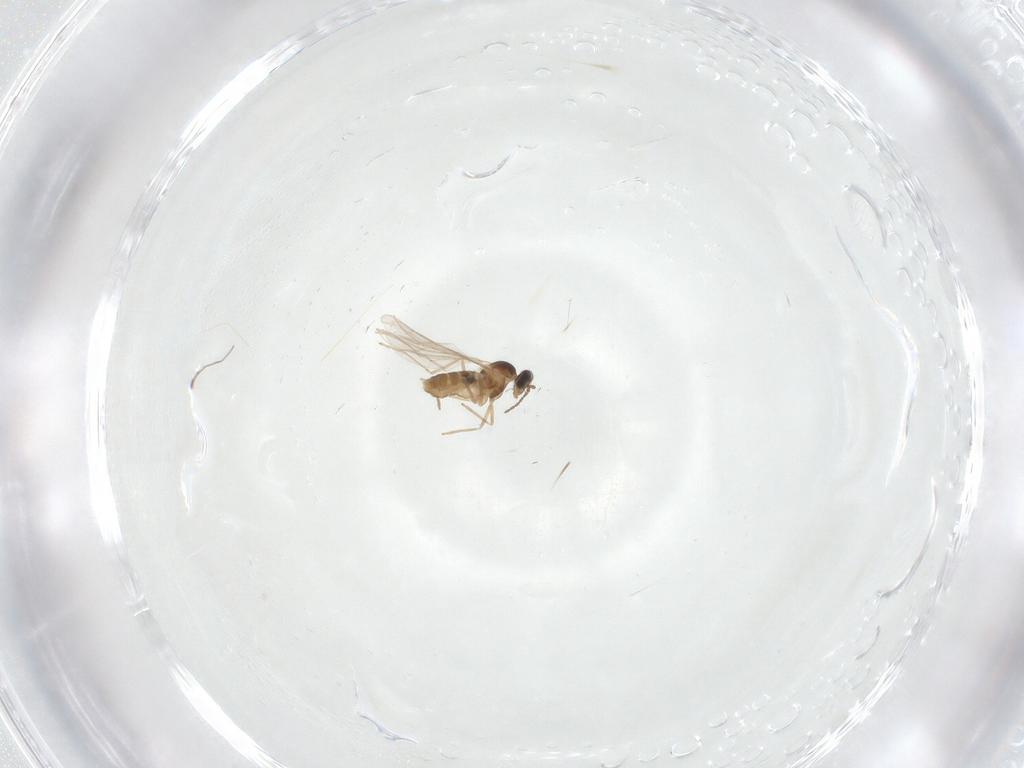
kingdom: Animalia
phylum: Arthropoda
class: Insecta
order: Diptera
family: Cecidomyiidae
